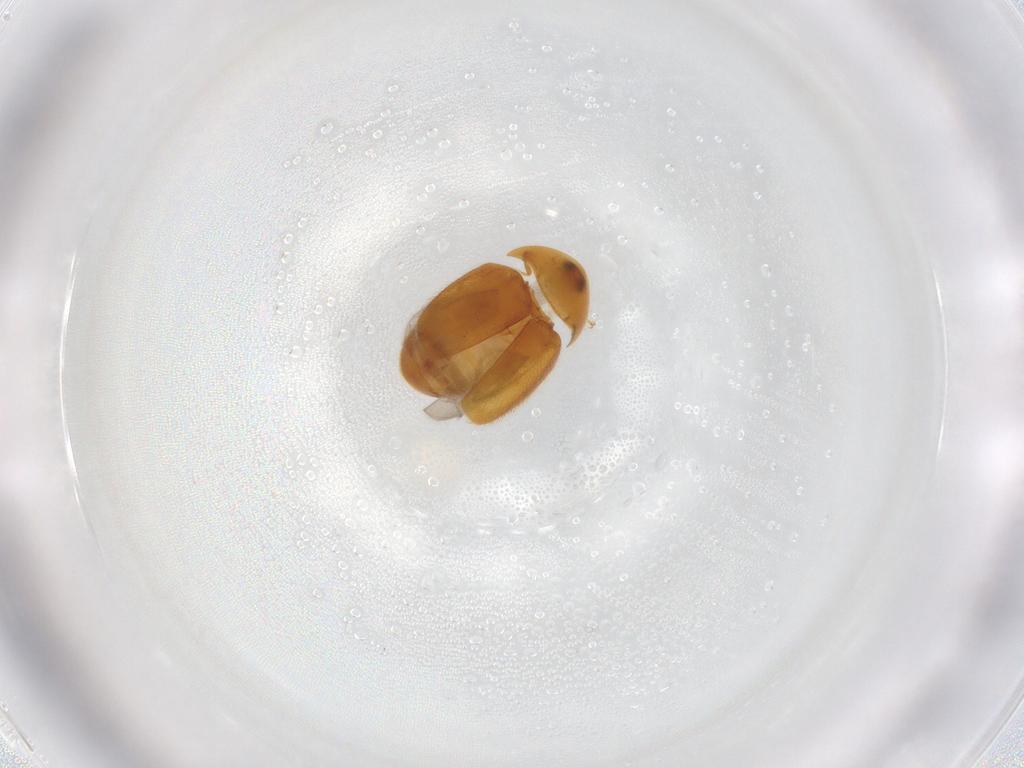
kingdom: Animalia
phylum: Arthropoda
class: Insecta
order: Coleoptera
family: Corylophidae
